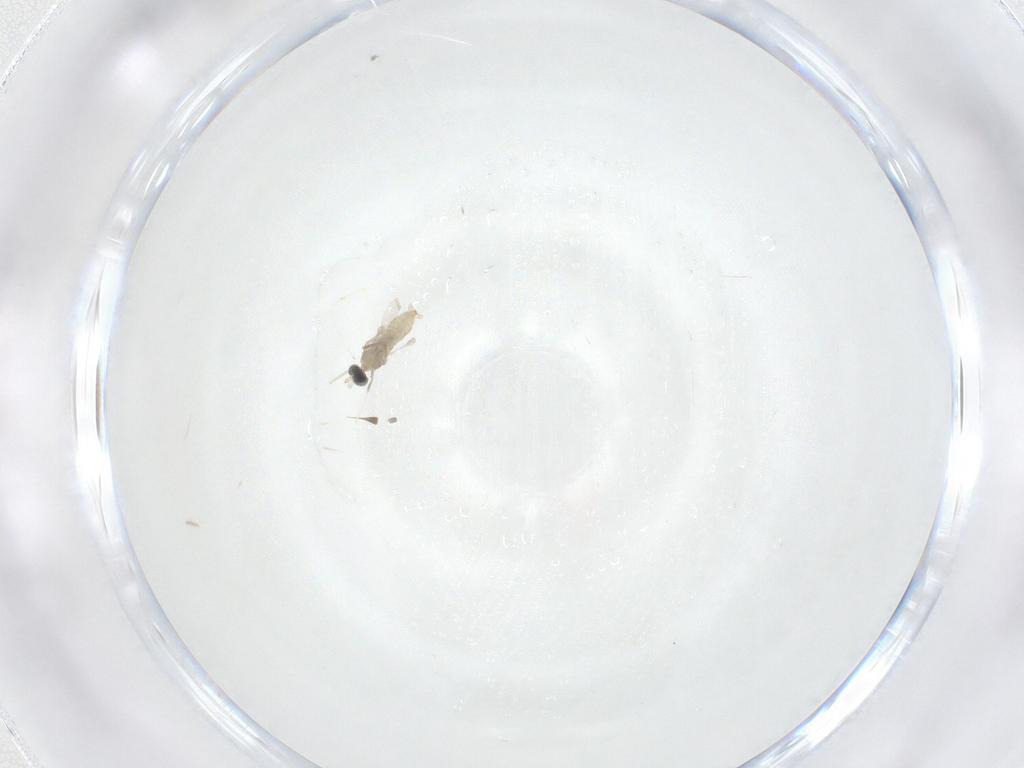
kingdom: Animalia
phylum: Arthropoda
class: Insecta
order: Diptera
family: Cecidomyiidae
